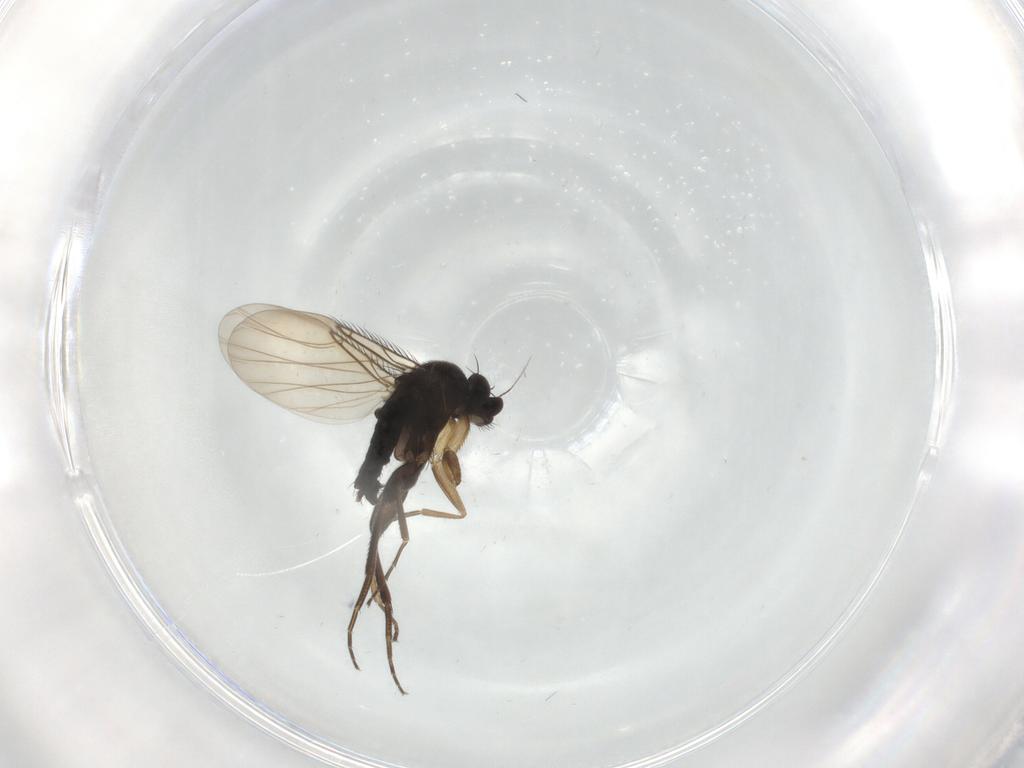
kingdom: Animalia
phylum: Arthropoda
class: Insecta
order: Diptera
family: Phoridae
